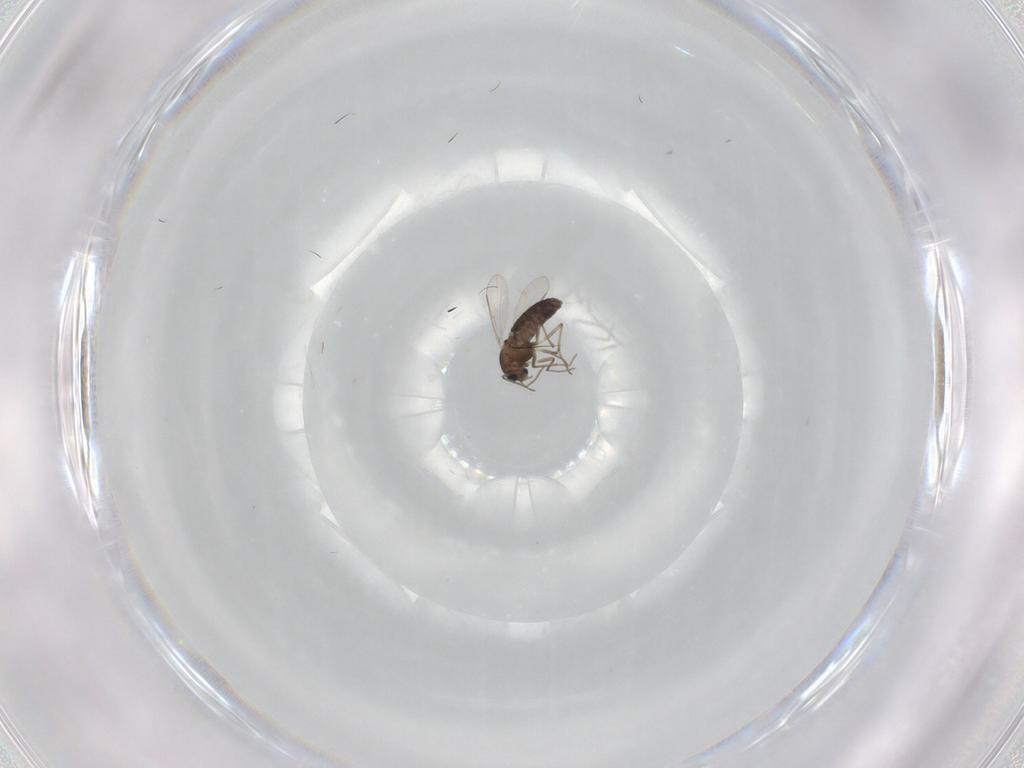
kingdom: Animalia
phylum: Arthropoda
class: Insecta
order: Diptera
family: Chironomidae
